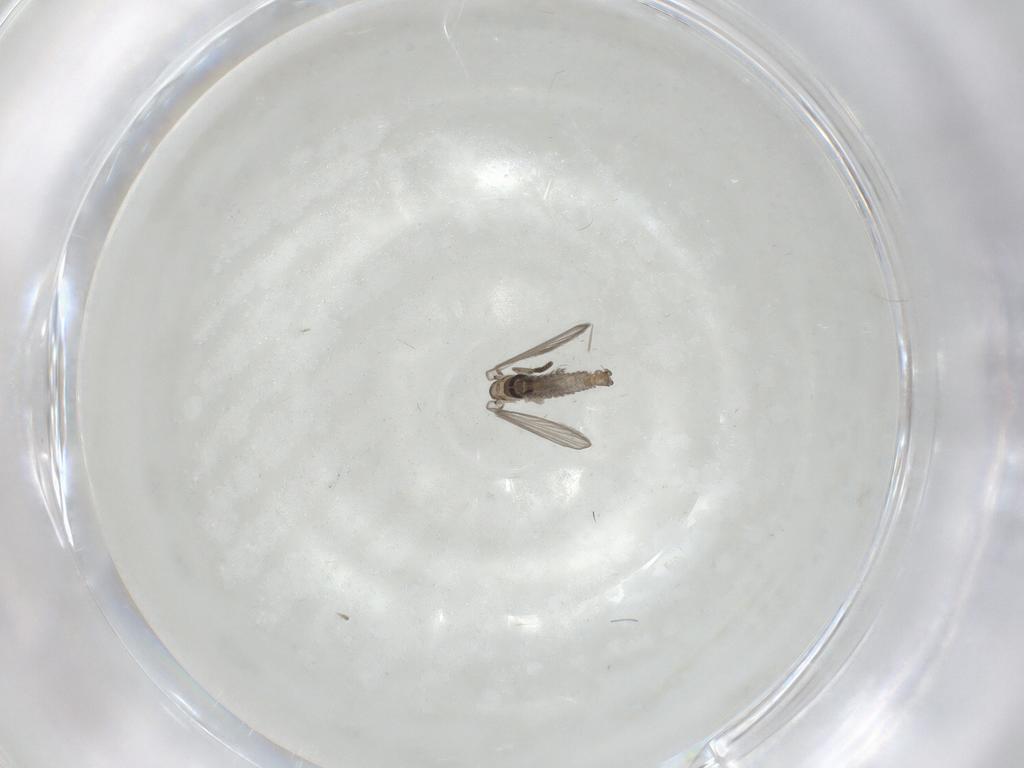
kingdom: Animalia
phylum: Arthropoda
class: Insecta
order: Diptera
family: Psychodidae
